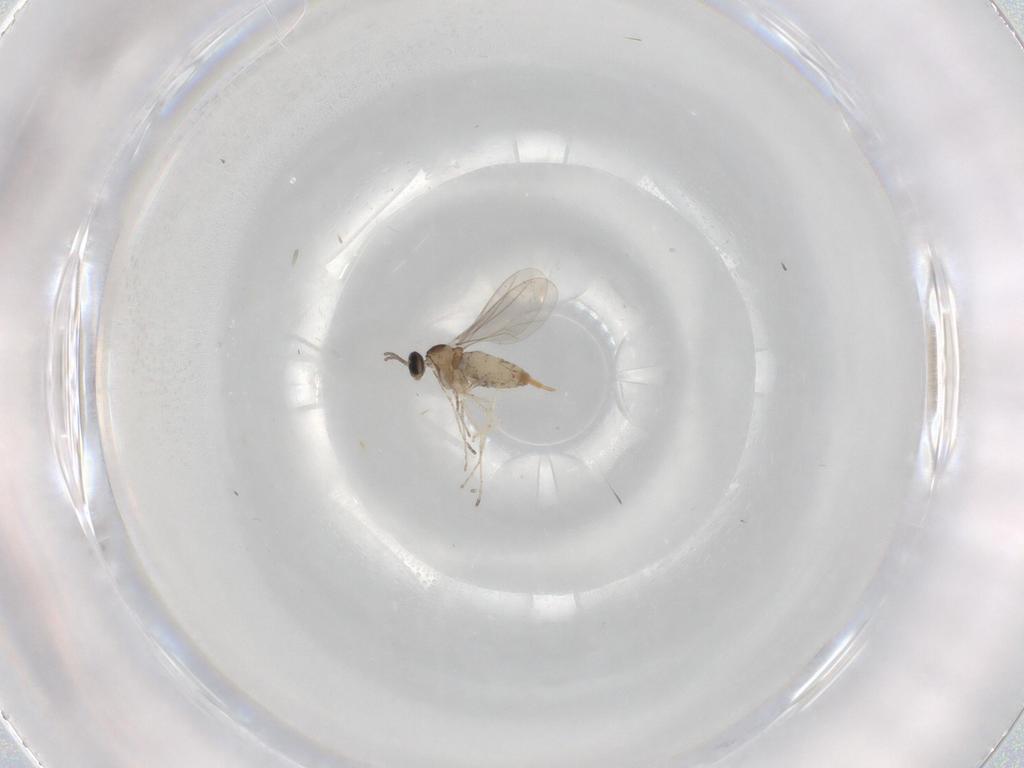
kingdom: Animalia
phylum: Arthropoda
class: Insecta
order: Diptera
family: Cecidomyiidae
